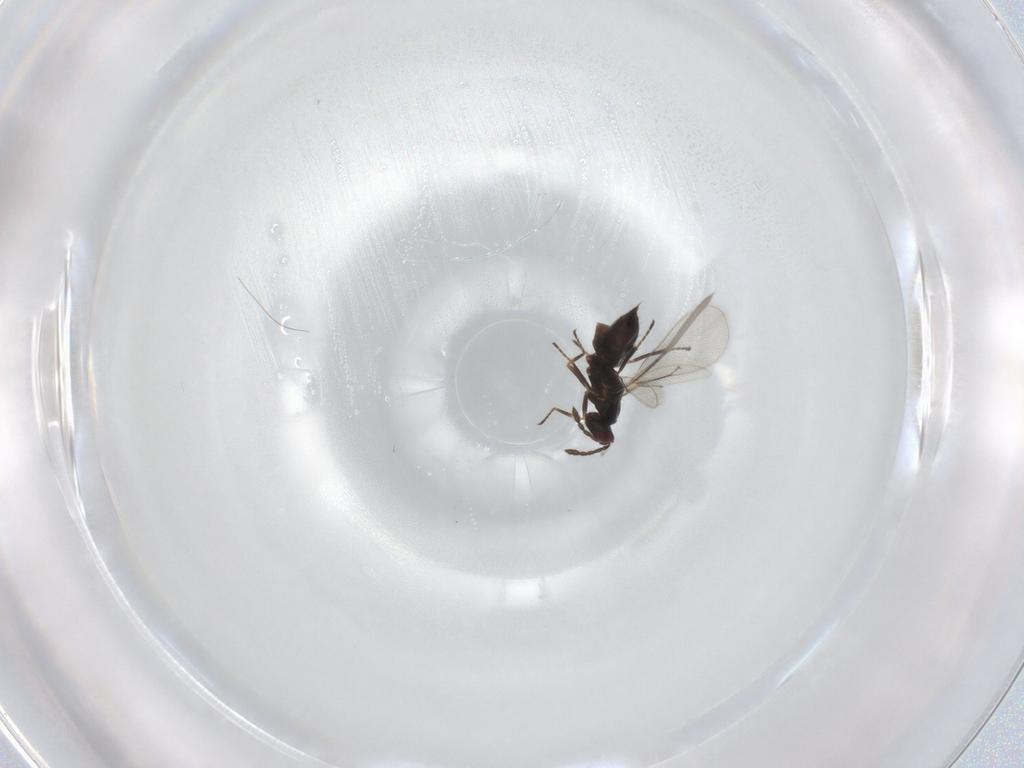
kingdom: Animalia
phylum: Arthropoda
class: Insecta
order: Hymenoptera
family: Eulophidae
